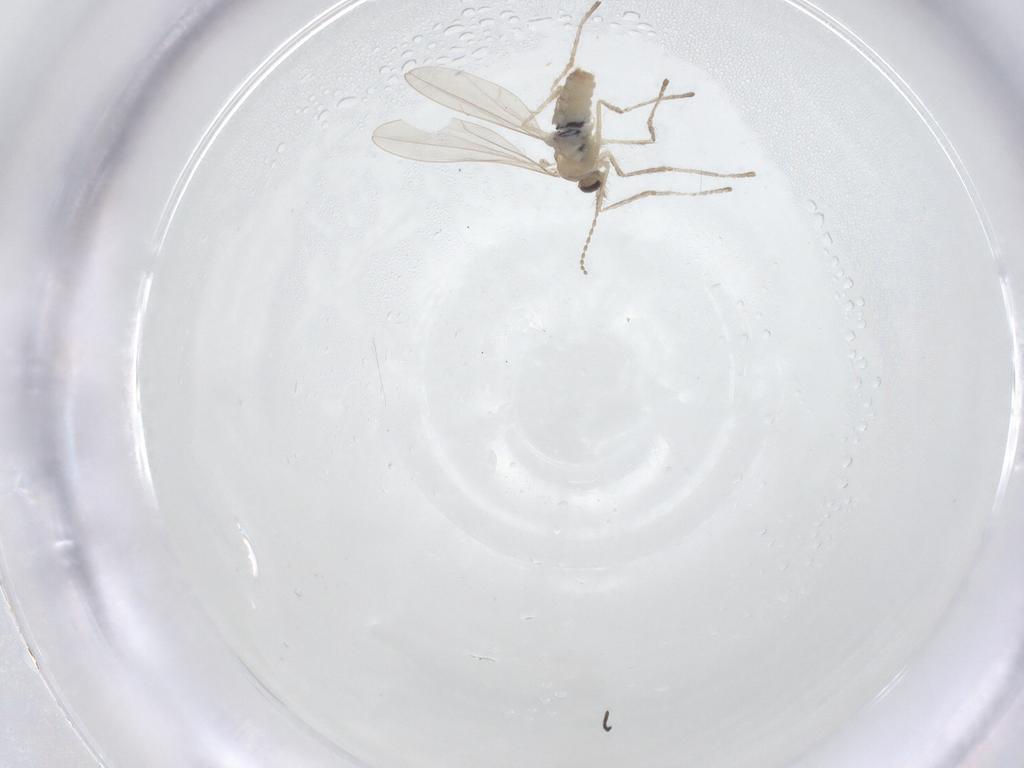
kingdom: Animalia
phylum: Arthropoda
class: Insecta
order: Diptera
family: Cecidomyiidae
